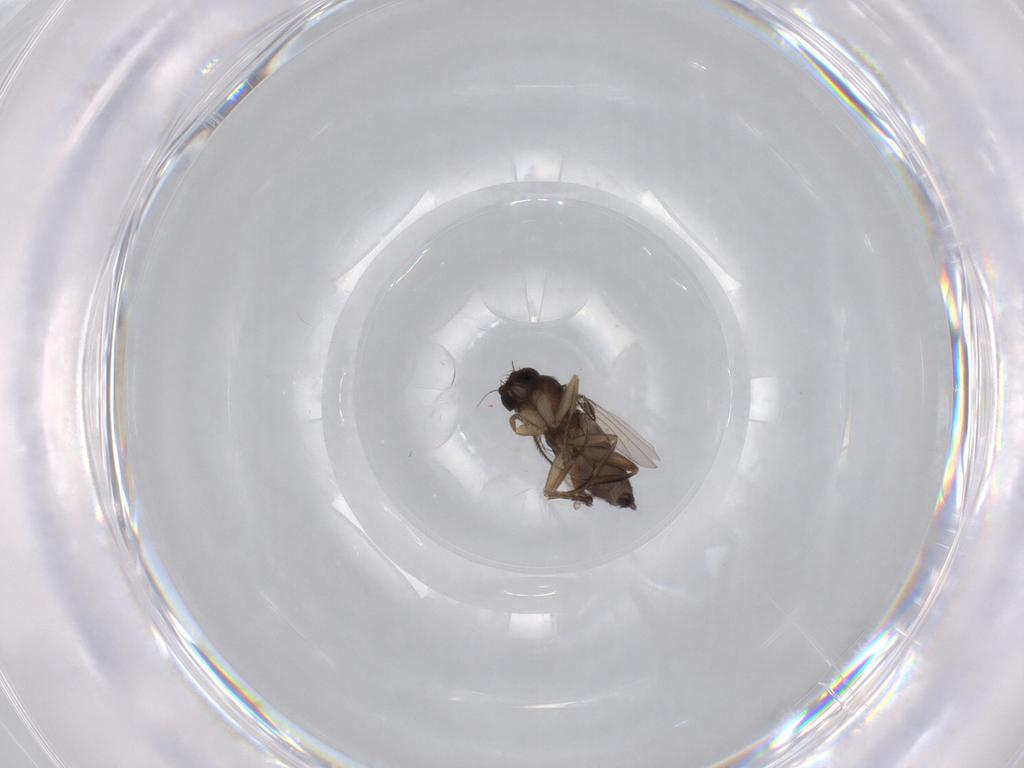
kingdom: Animalia
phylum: Arthropoda
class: Insecta
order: Diptera
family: Phoridae
